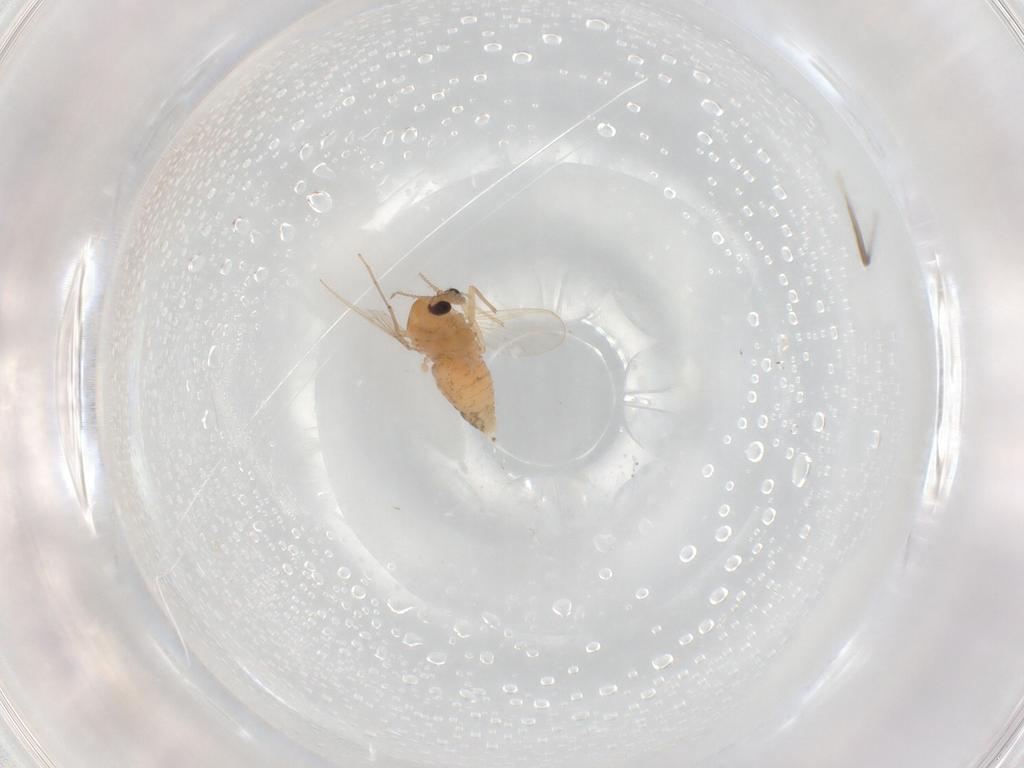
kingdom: Animalia
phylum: Arthropoda
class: Insecta
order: Diptera
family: Chironomidae
